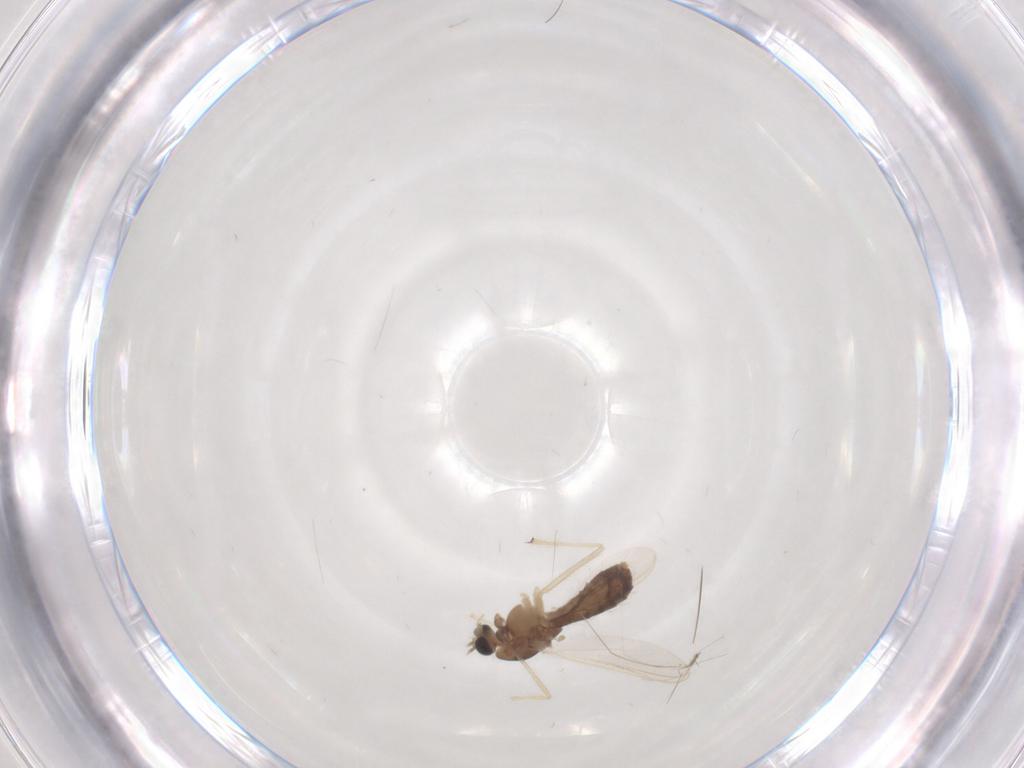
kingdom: Animalia
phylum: Arthropoda
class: Insecta
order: Diptera
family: Chironomidae
